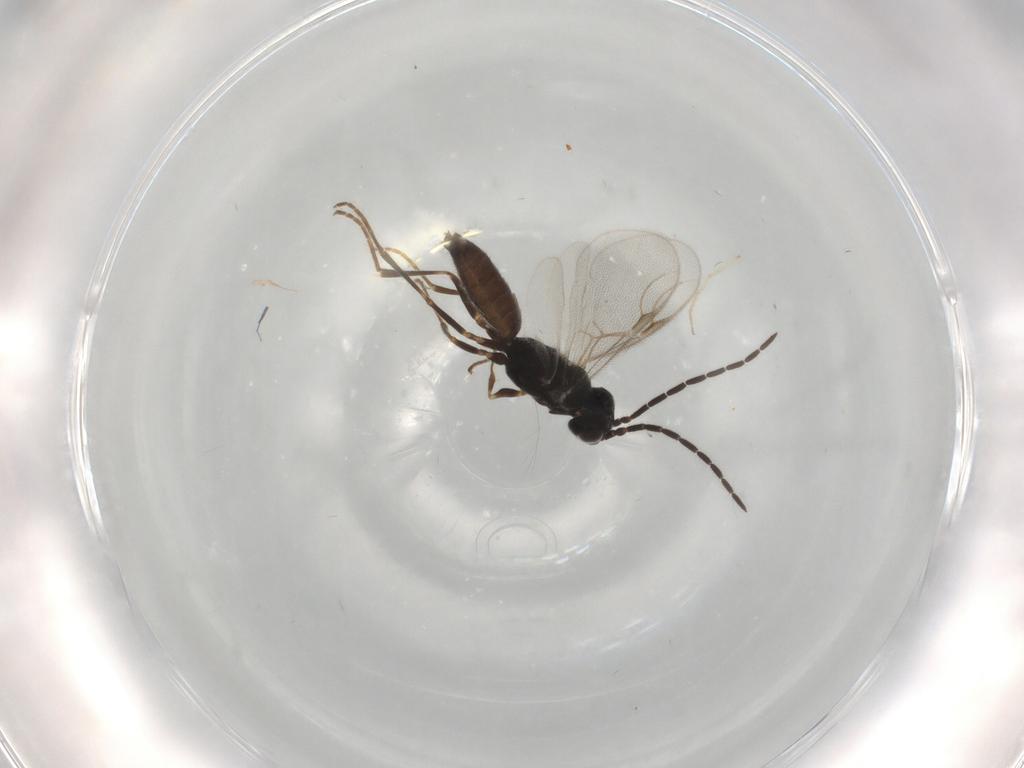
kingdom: Animalia
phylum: Arthropoda
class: Insecta
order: Hymenoptera
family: Dryinidae
